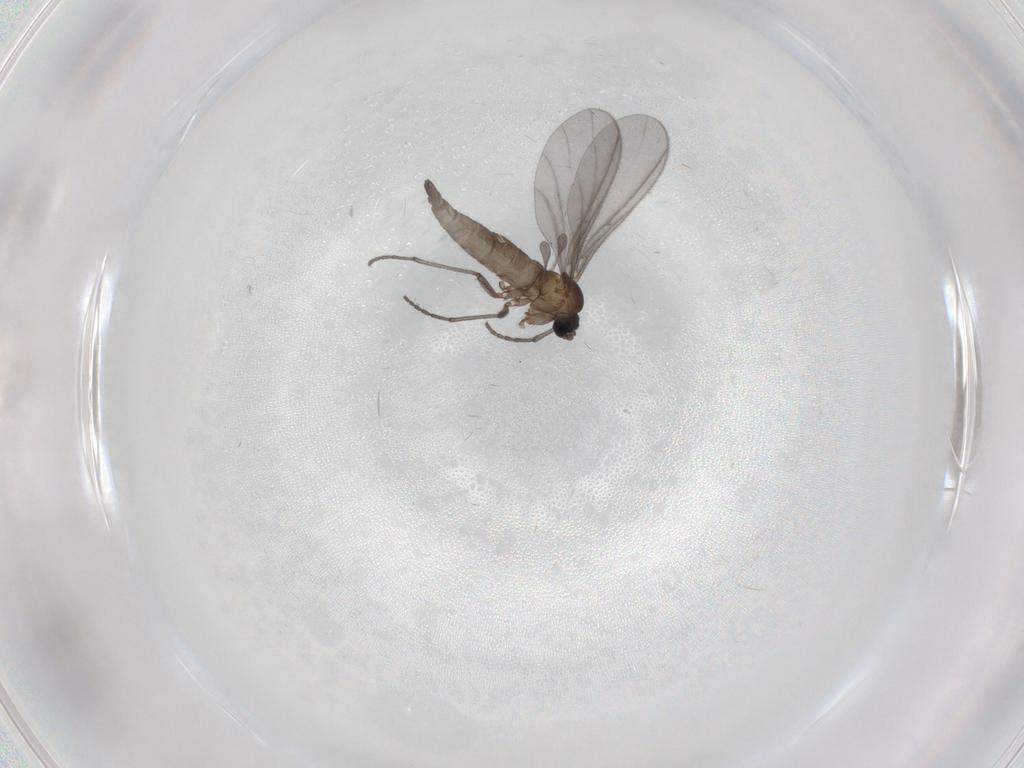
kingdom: Animalia
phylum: Arthropoda
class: Insecta
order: Diptera
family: Sciaridae
